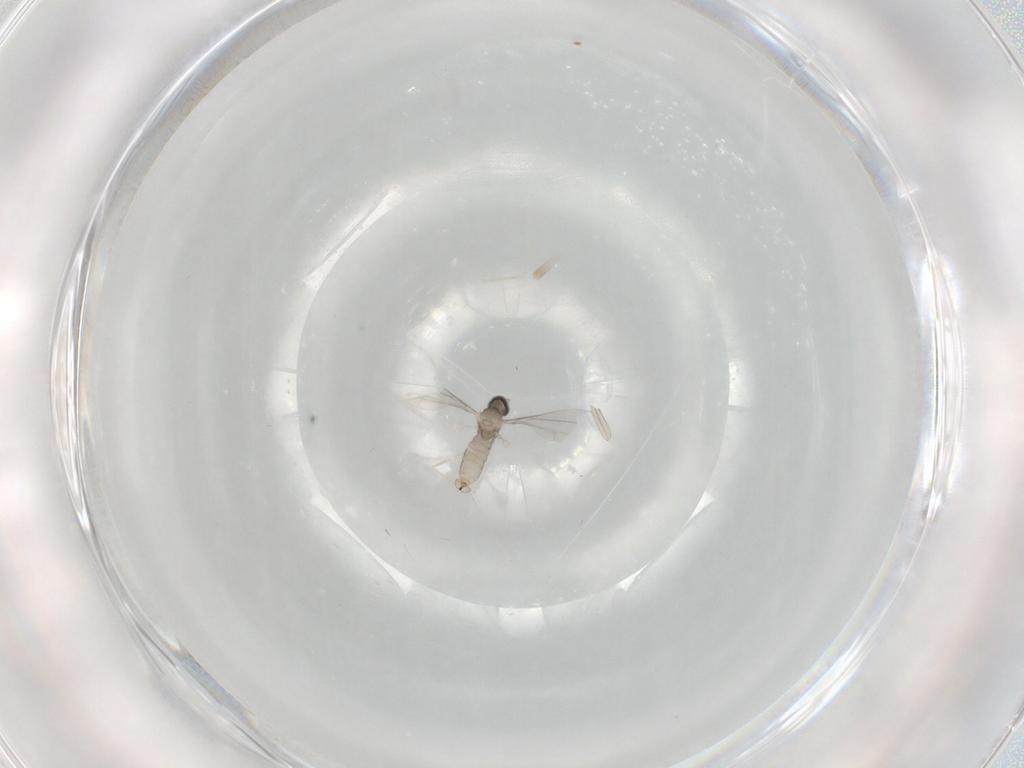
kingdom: Animalia
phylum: Arthropoda
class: Insecta
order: Diptera
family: Cecidomyiidae
